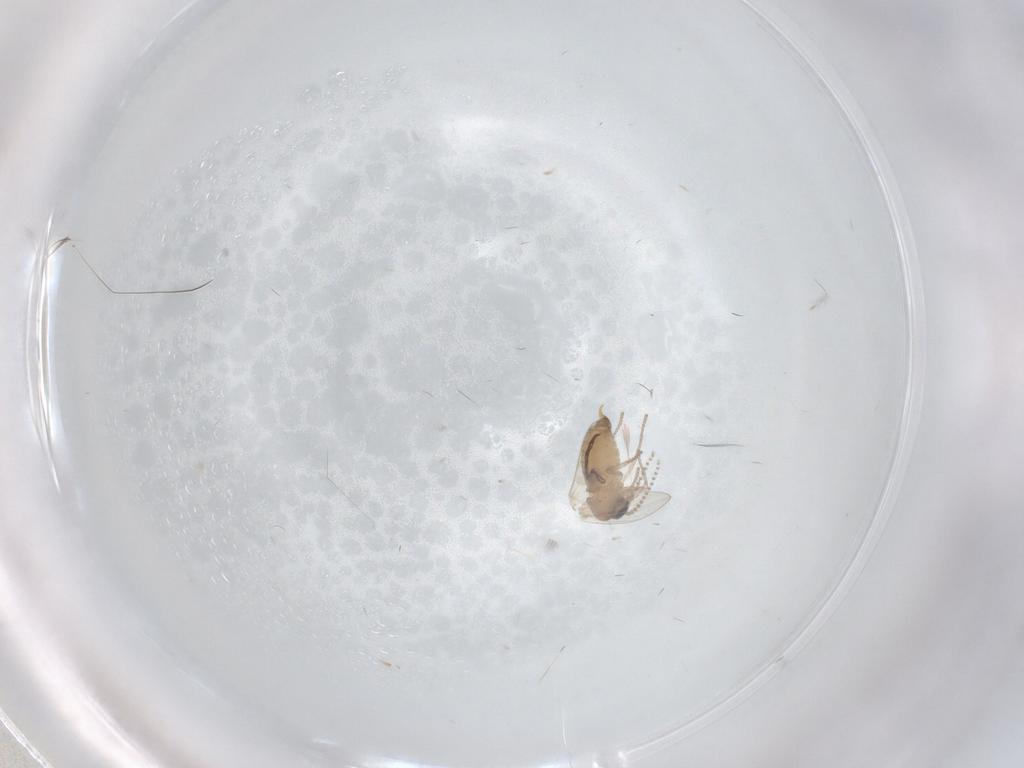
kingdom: Animalia
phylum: Arthropoda
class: Insecta
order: Diptera
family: Psychodidae
